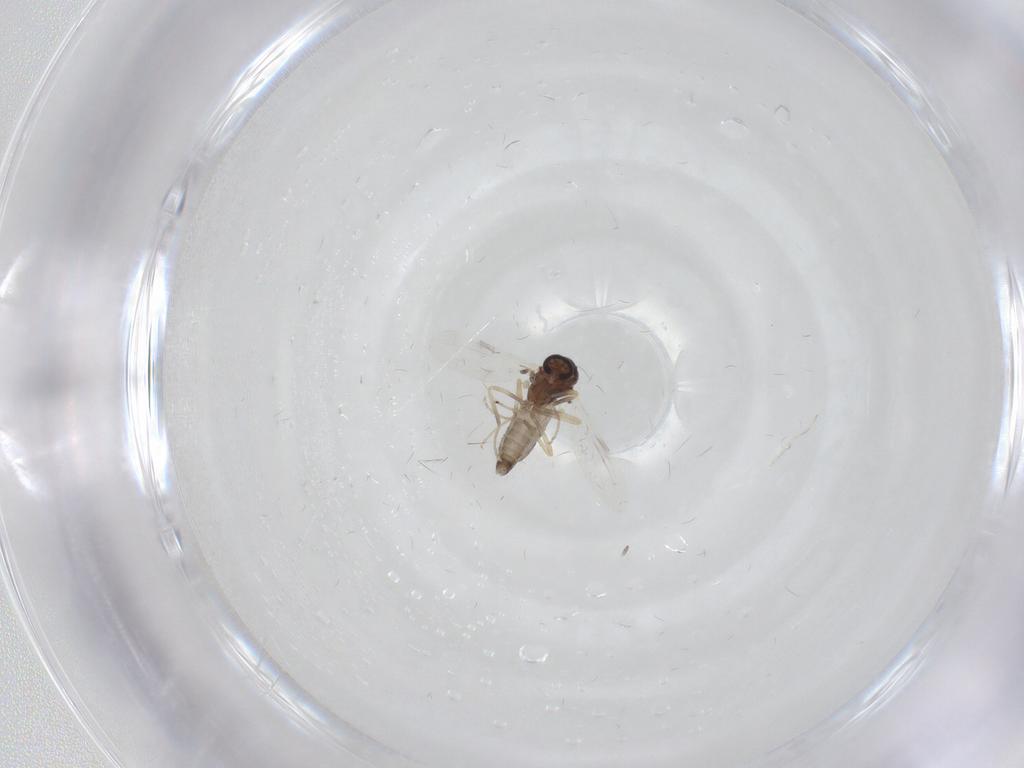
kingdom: Animalia
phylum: Arthropoda
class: Insecta
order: Diptera
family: Ceratopogonidae
